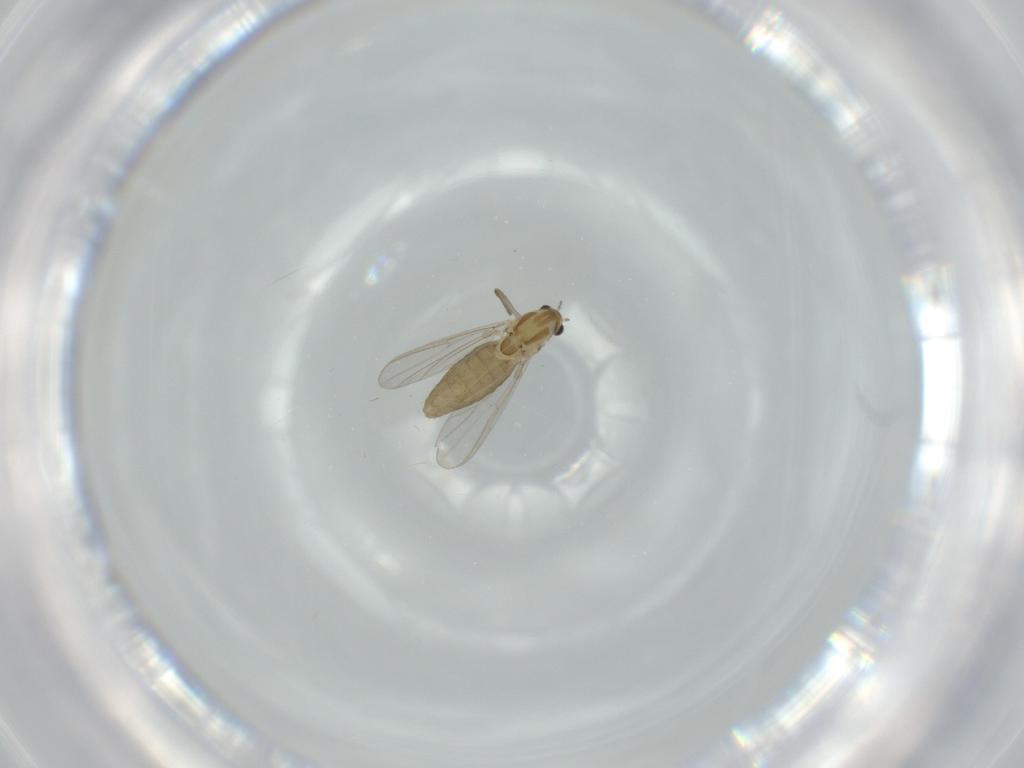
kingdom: Animalia
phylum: Arthropoda
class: Insecta
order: Diptera
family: Chironomidae
